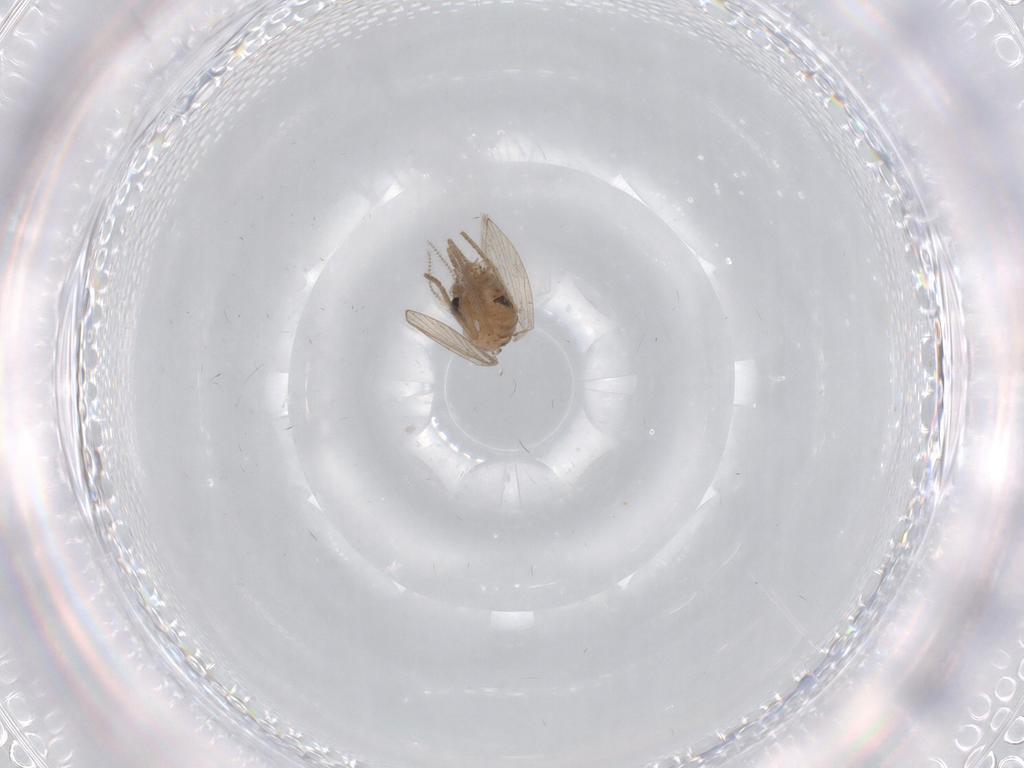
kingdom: Animalia
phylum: Arthropoda
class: Insecta
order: Diptera
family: Psychodidae
